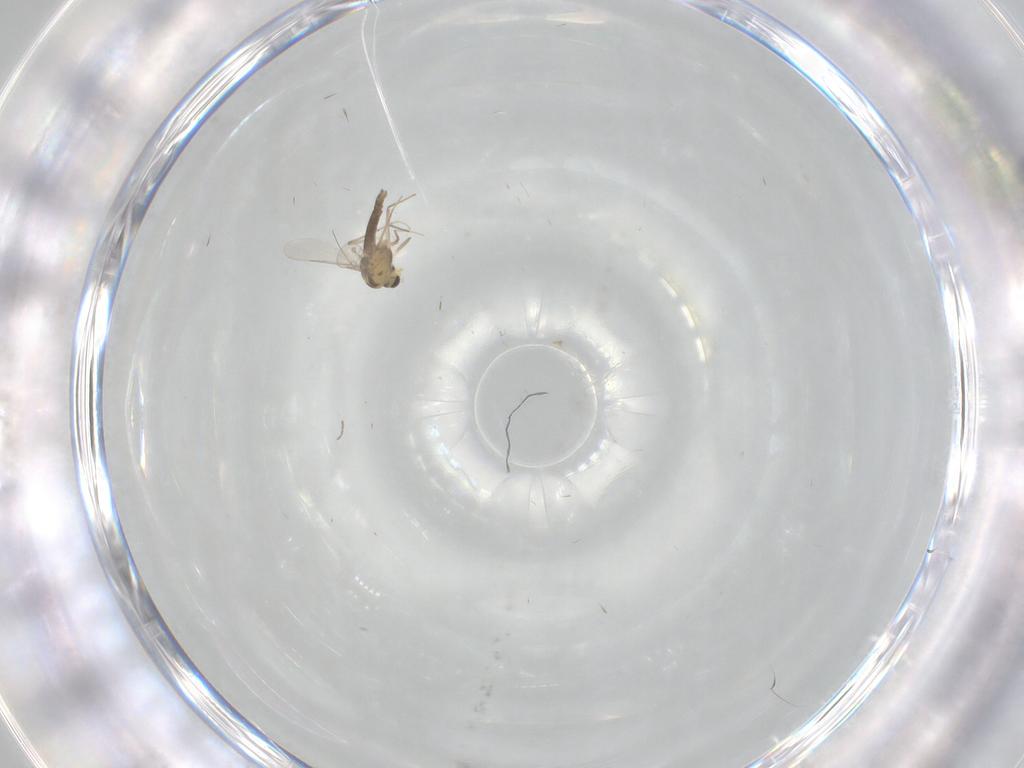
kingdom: Animalia
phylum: Arthropoda
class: Insecta
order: Diptera
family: Chironomidae
